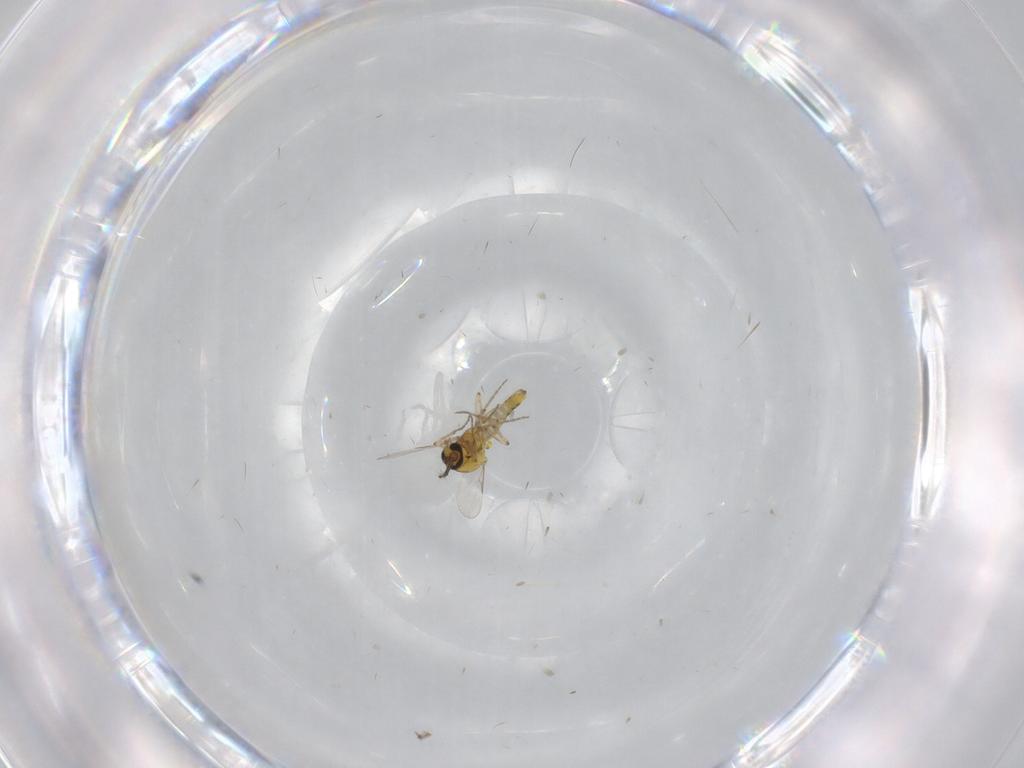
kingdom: Animalia
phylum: Arthropoda
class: Insecta
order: Diptera
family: Ceratopogonidae
